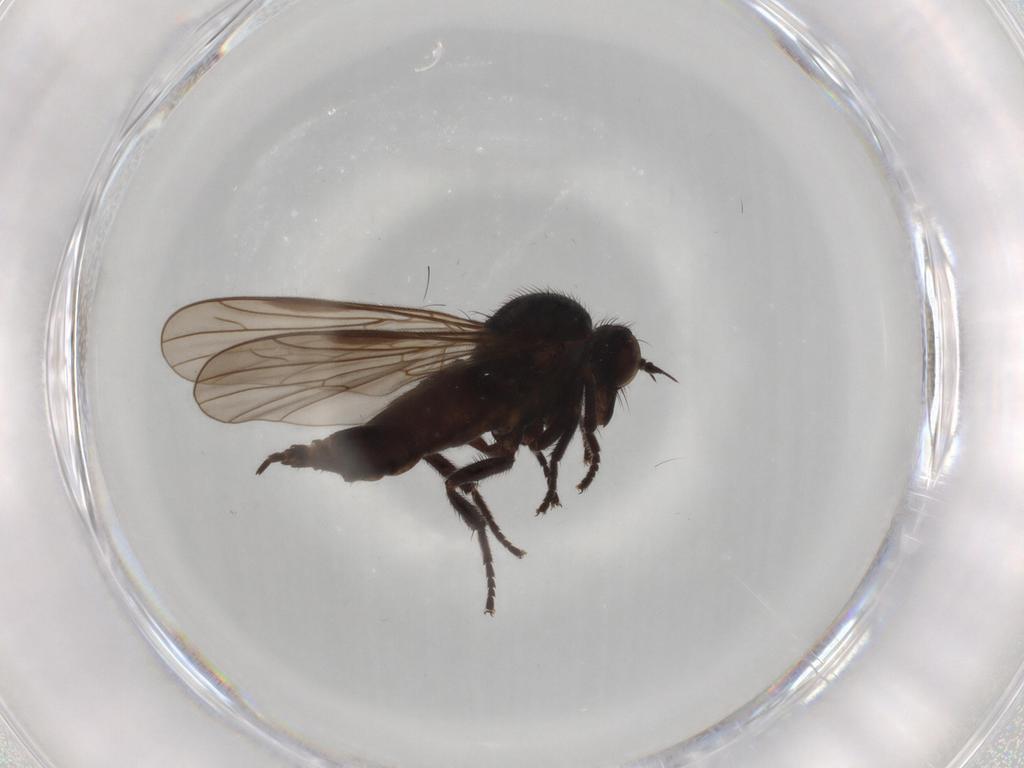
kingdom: Animalia
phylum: Arthropoda
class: Insecta
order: Diptera
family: Empididae
